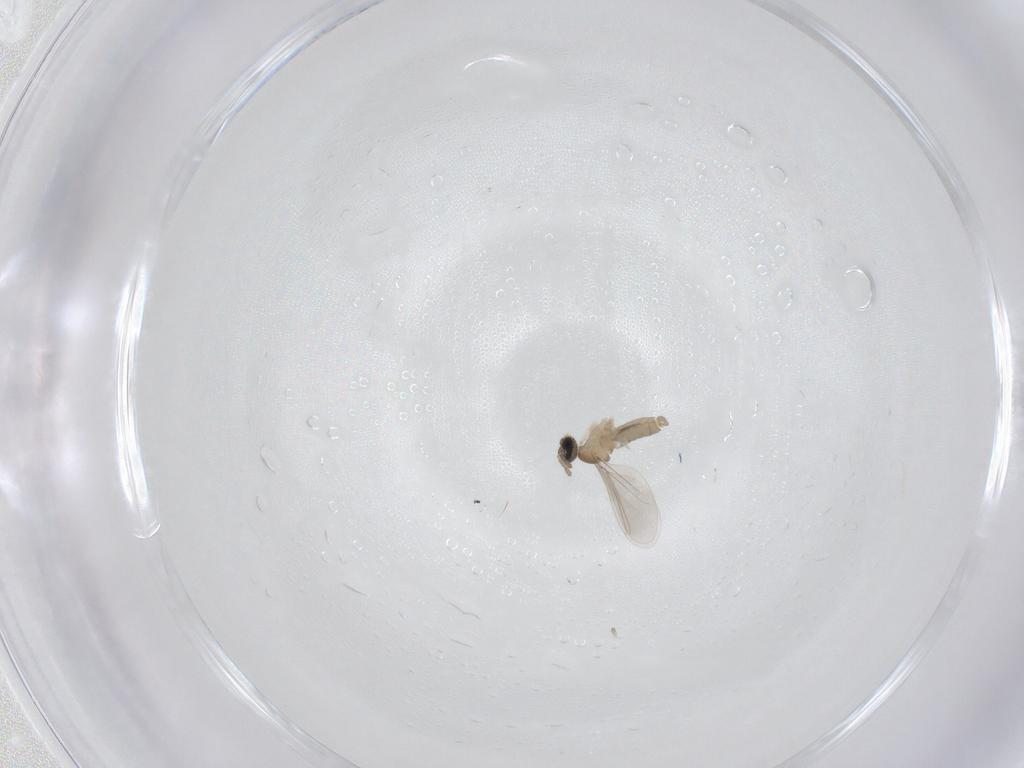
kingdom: Animalia
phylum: Arthropoda
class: Insecta
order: Diptera
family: Cecidomyiidae
